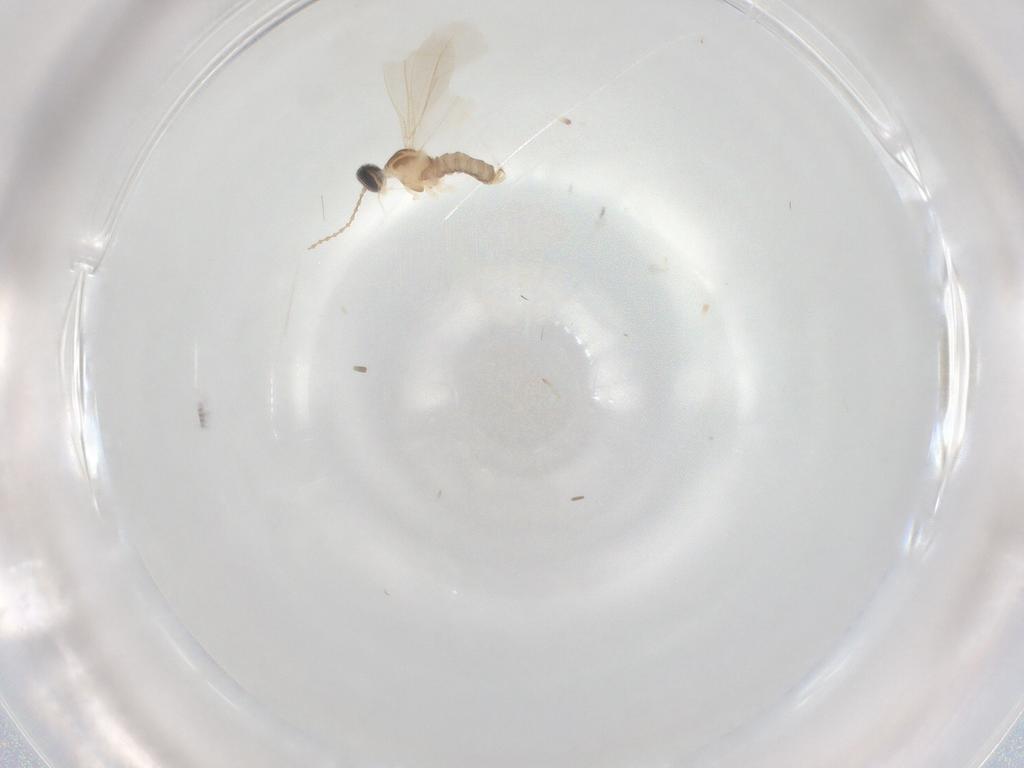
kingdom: Animalia
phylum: Arthropoda
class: Insecta
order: Diptera
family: Cecidomyiidae
